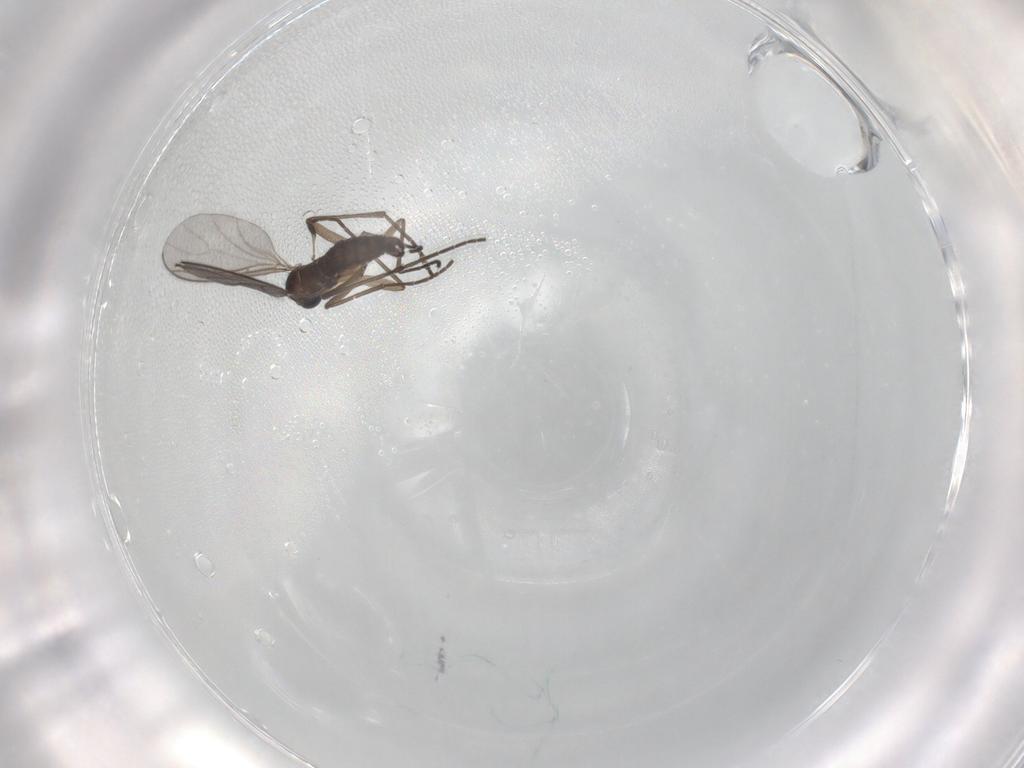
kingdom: Animalia
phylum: Arthropoda
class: Insecta
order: Diptera
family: Sciaridae
